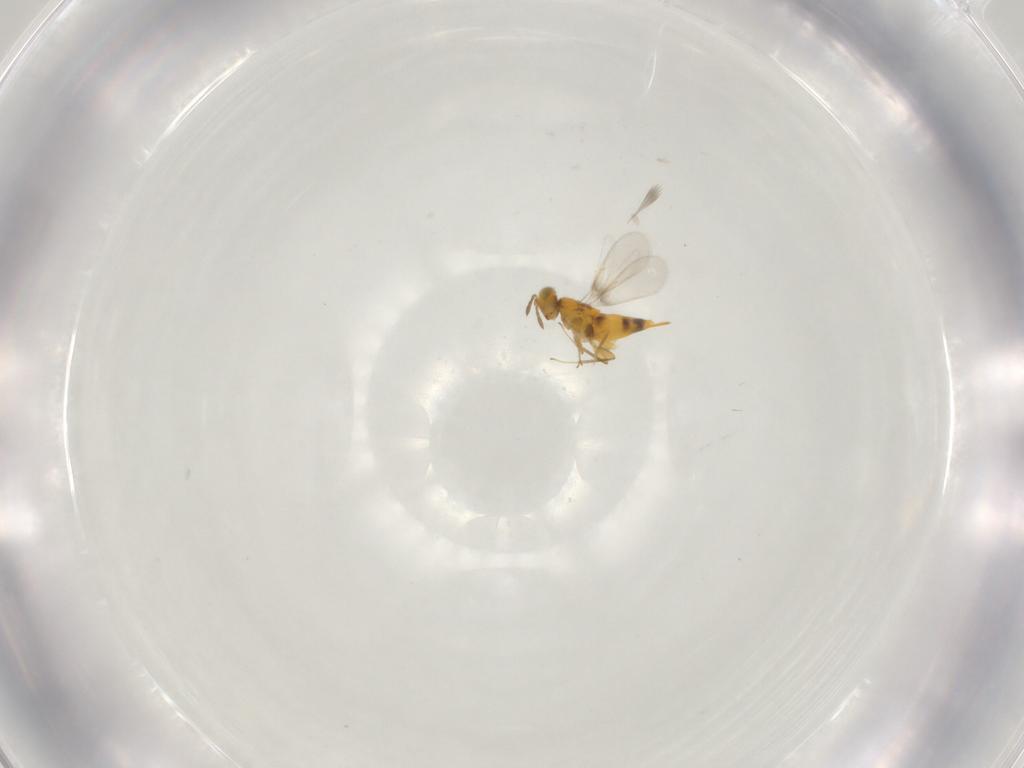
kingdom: Animalia
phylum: Arthropoda
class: Insecta
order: Hymenoptera
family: Aphelinidae
